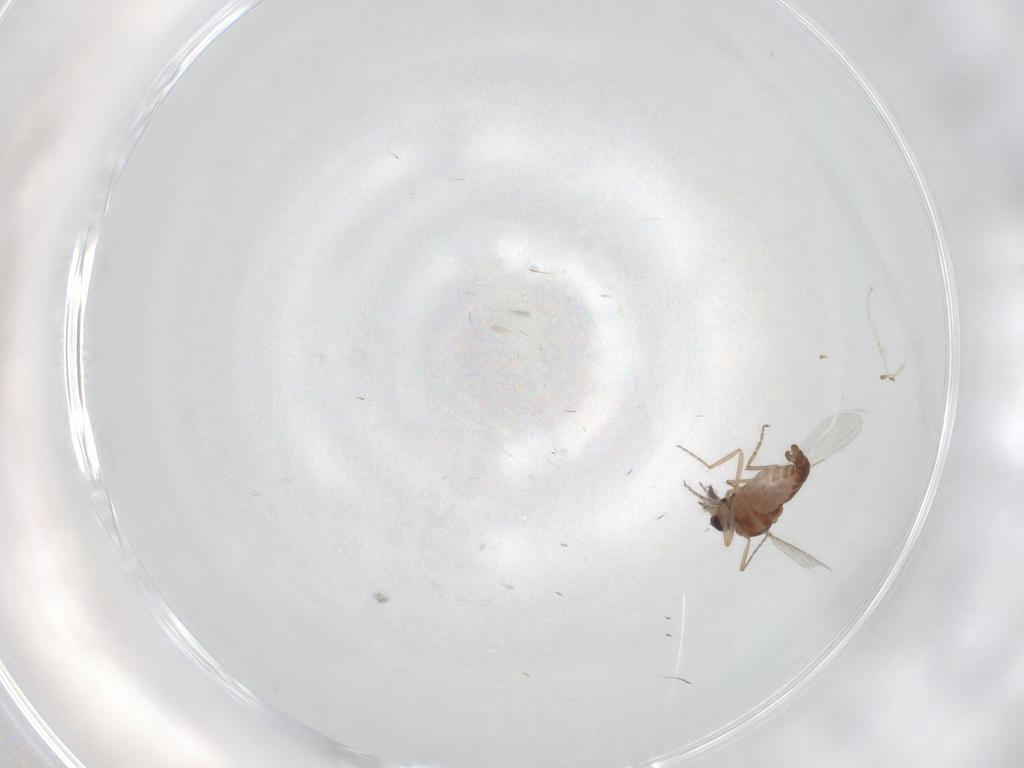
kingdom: Animalia
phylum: Arthropoda
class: Insecta
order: Diptera
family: Ceratopogonidae
